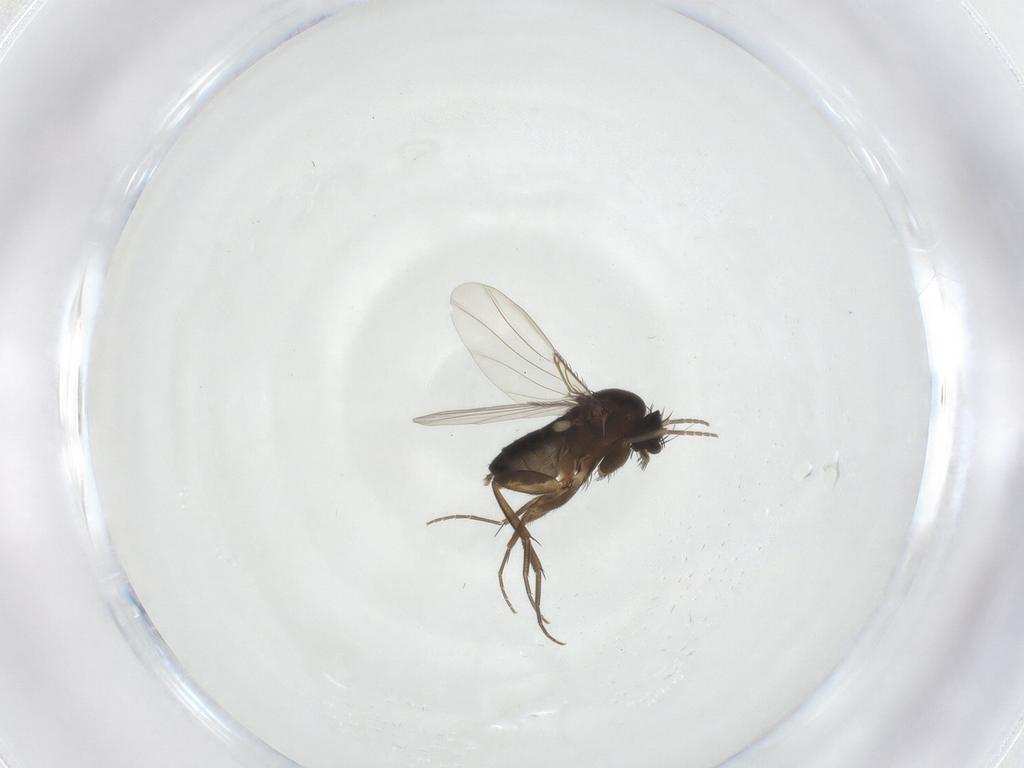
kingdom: Animalia
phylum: Arthropoda
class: Insecta
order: Diptera
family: Phoridae
